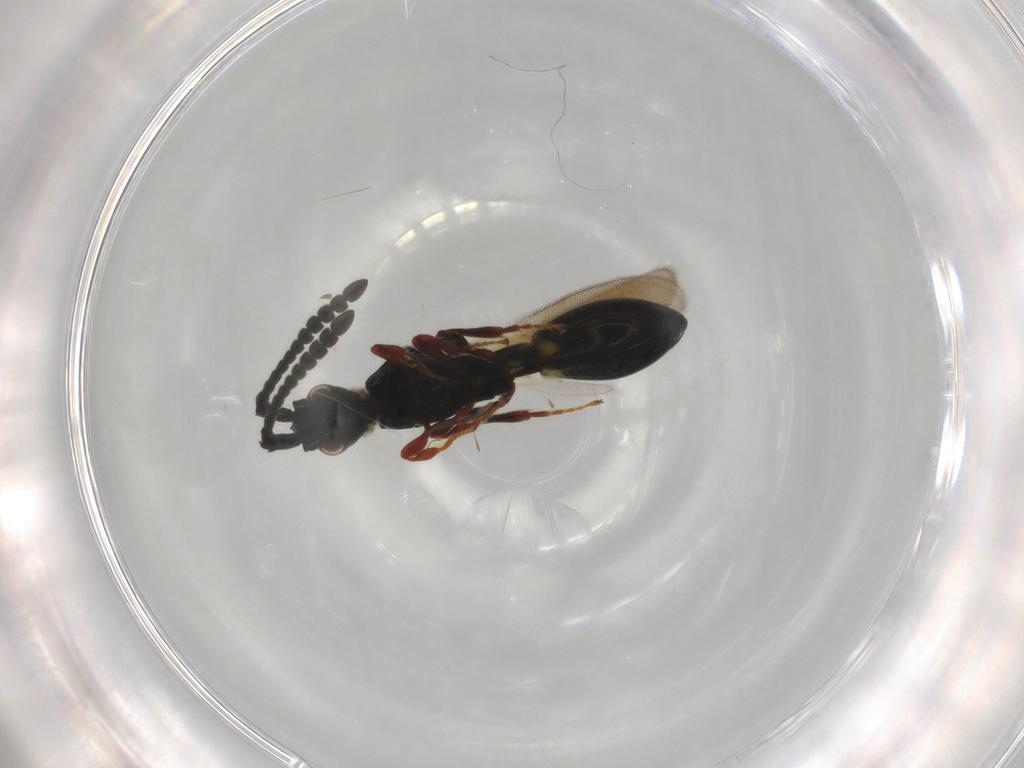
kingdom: Animalia
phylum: Arthropoda
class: Insecta
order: Hymenoptera
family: Diapriidae
